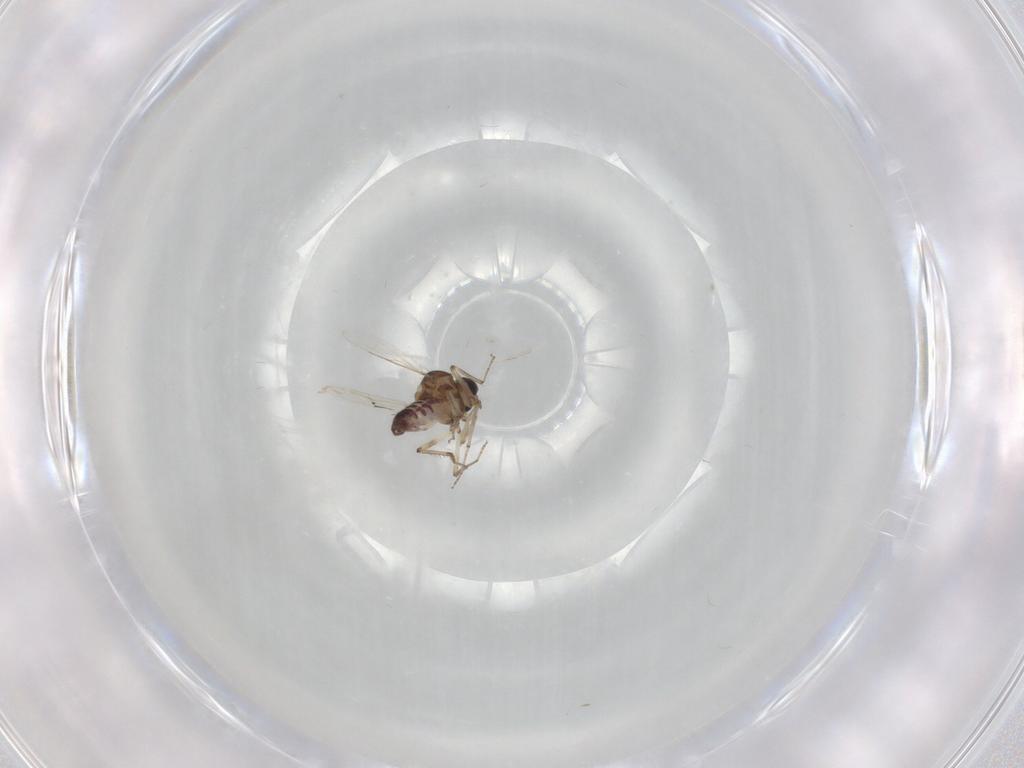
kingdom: Animalia
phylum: Arthropoda
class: Insecta
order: Diptera
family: Ceratopogonidae
